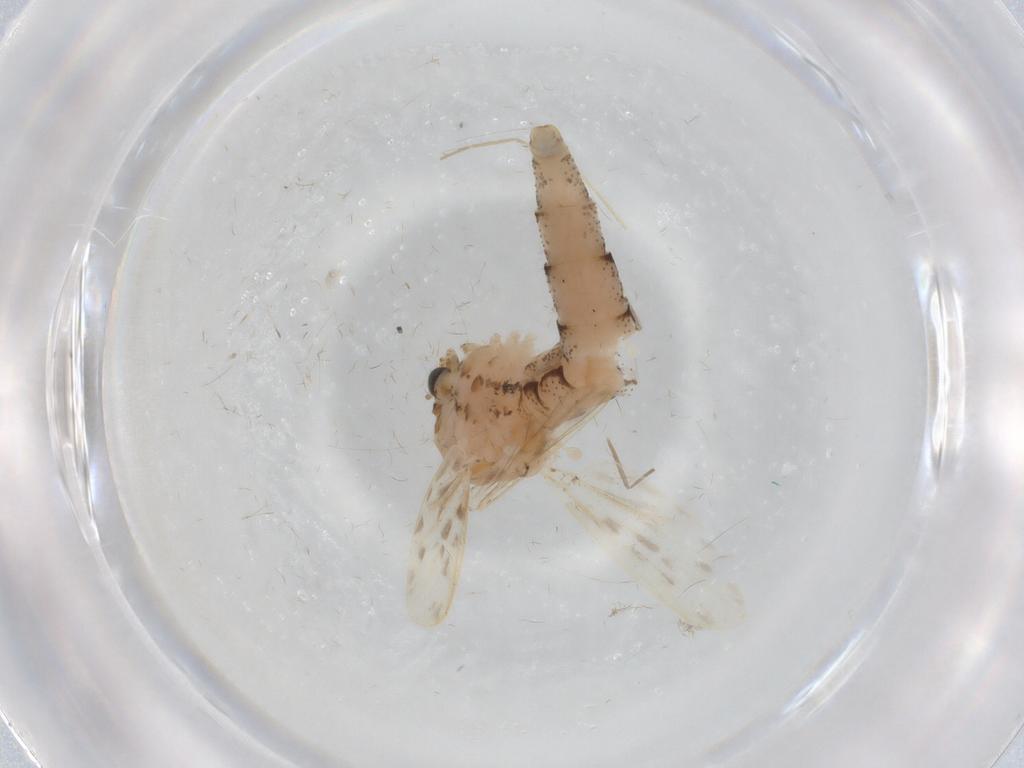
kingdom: Animalia
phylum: Arthropoda
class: Insecta
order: Diptera
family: Chaoboridae
